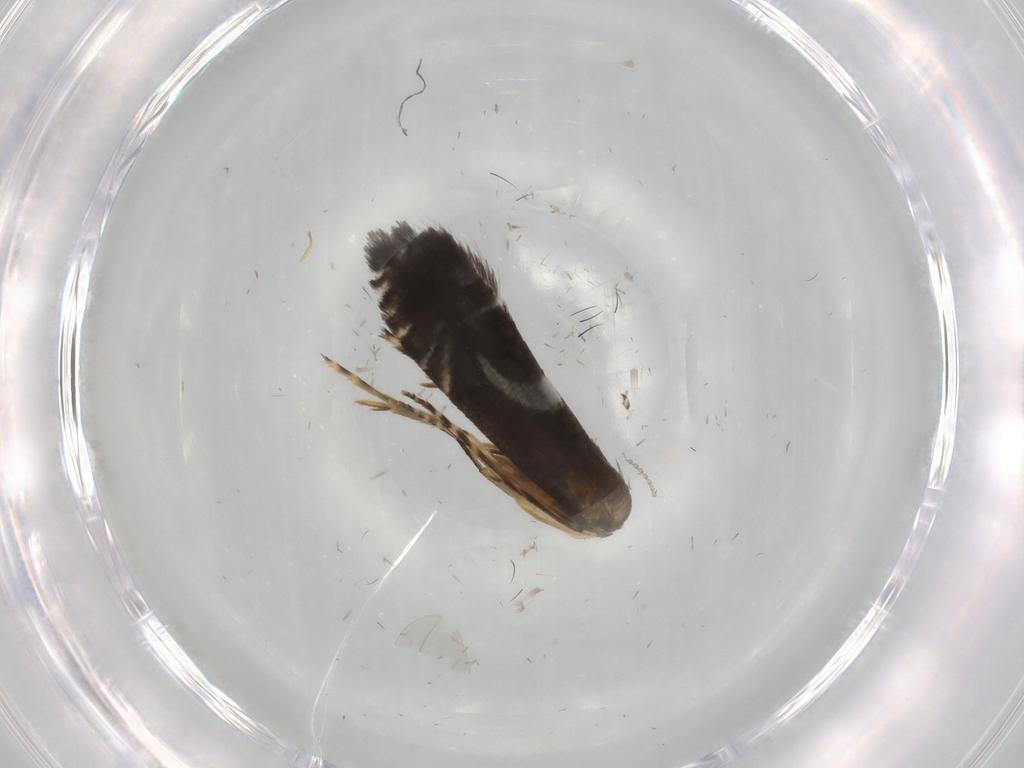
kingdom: Animalia
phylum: Arthropoda
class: Insecta
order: Lepidoptera
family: Glyphipterigidae
